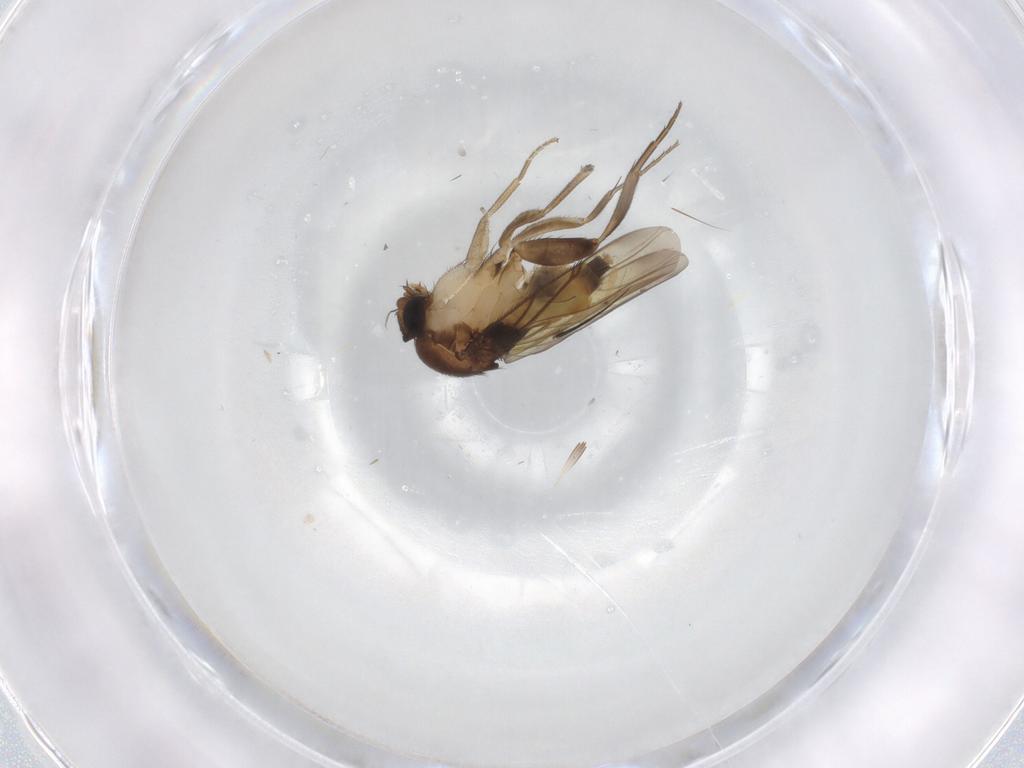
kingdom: Animalia
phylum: Arthropoda
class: Insecta
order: Diptera
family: Phoridae
